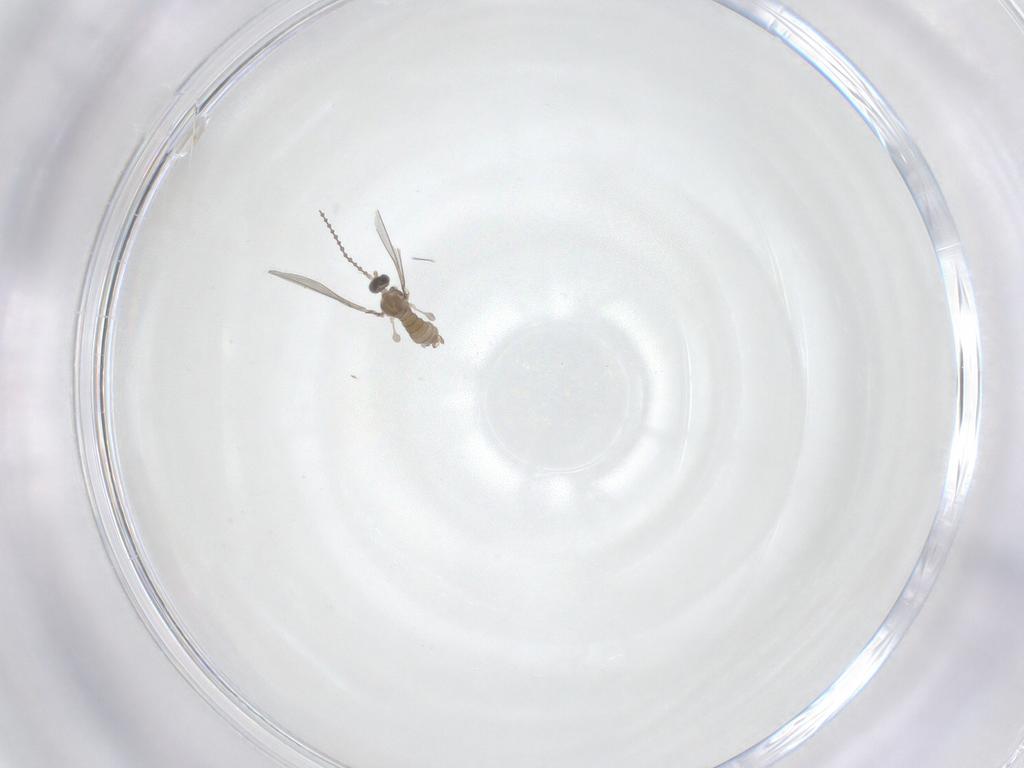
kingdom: Animalia
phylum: Arthropoda
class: Insecta
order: Diptera
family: Cecidomyiidae
